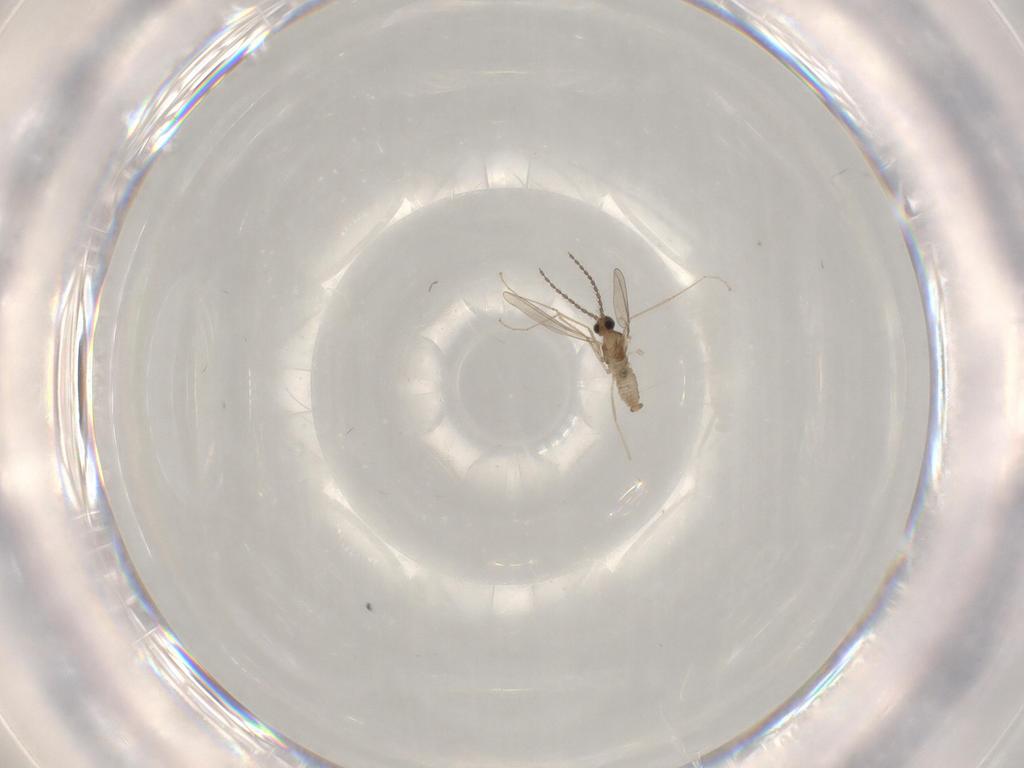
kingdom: Animalia
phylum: Arthropoda
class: Insecta
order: Diptera
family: Chironomidae
